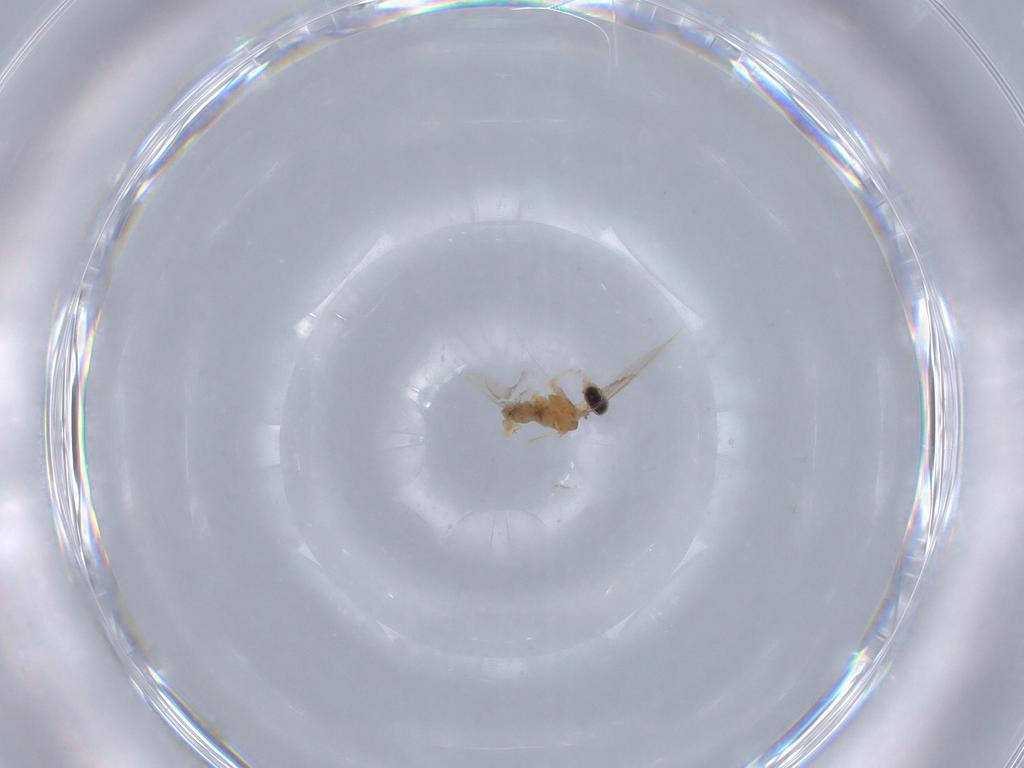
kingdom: Animalia
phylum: Arthropoda
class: Insecta
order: Diptera
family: Cecidomyiidae
